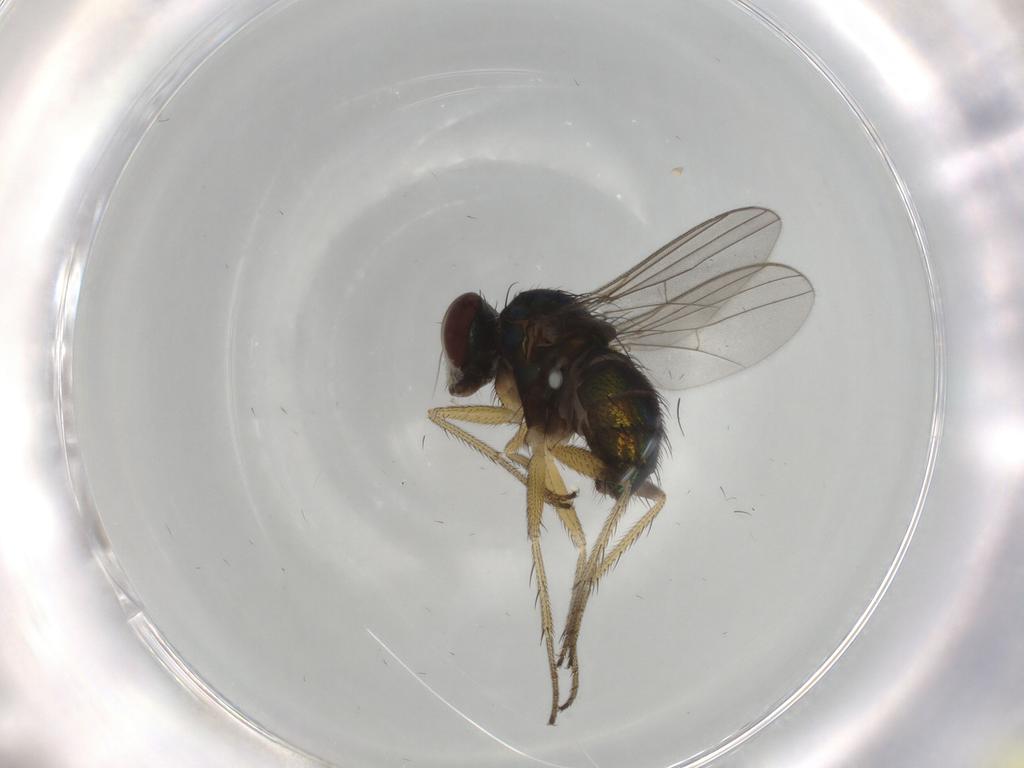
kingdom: Animalia
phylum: Arthropoda
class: Insecta
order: Diptera
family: Dolichopodidae
